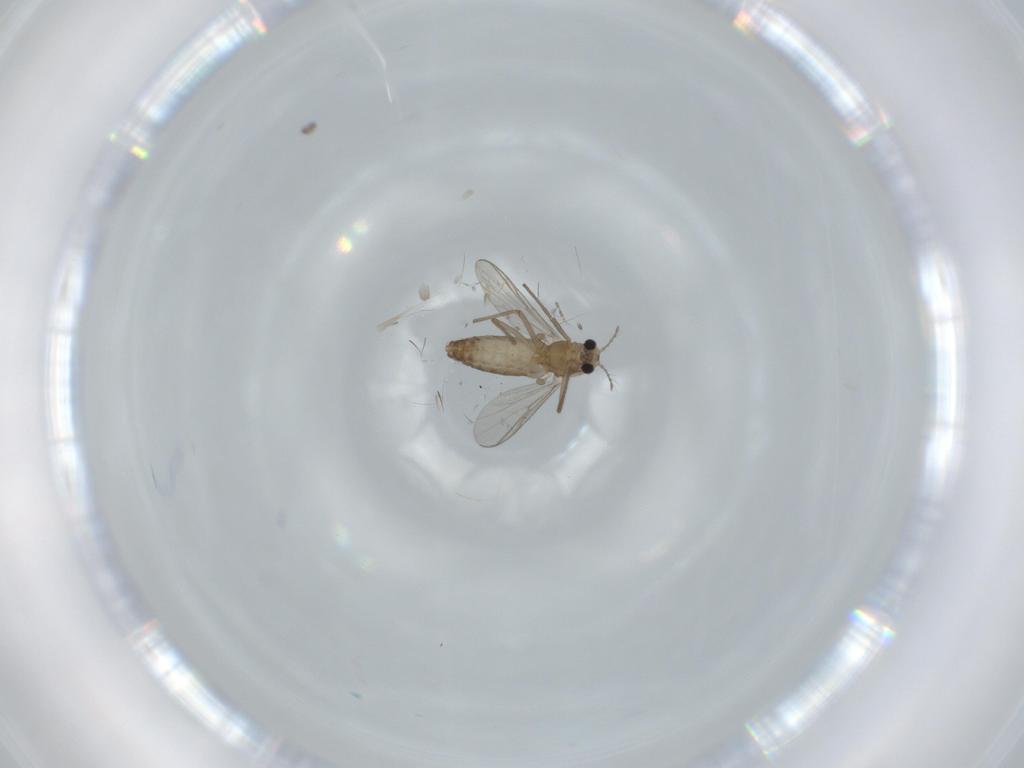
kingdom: Animalia
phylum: Arthropoda
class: Insecta
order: Diptera
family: Chironomidae
